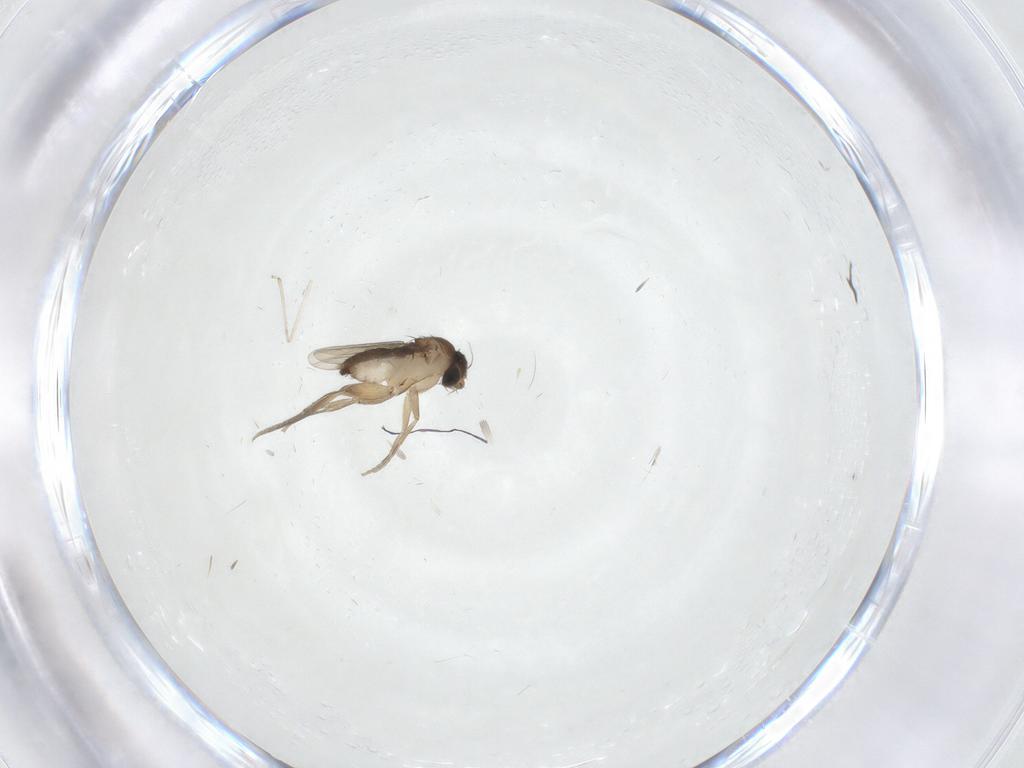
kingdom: Animalia
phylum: Arthropoda
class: Insecta
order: Diptera
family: Phoridae
